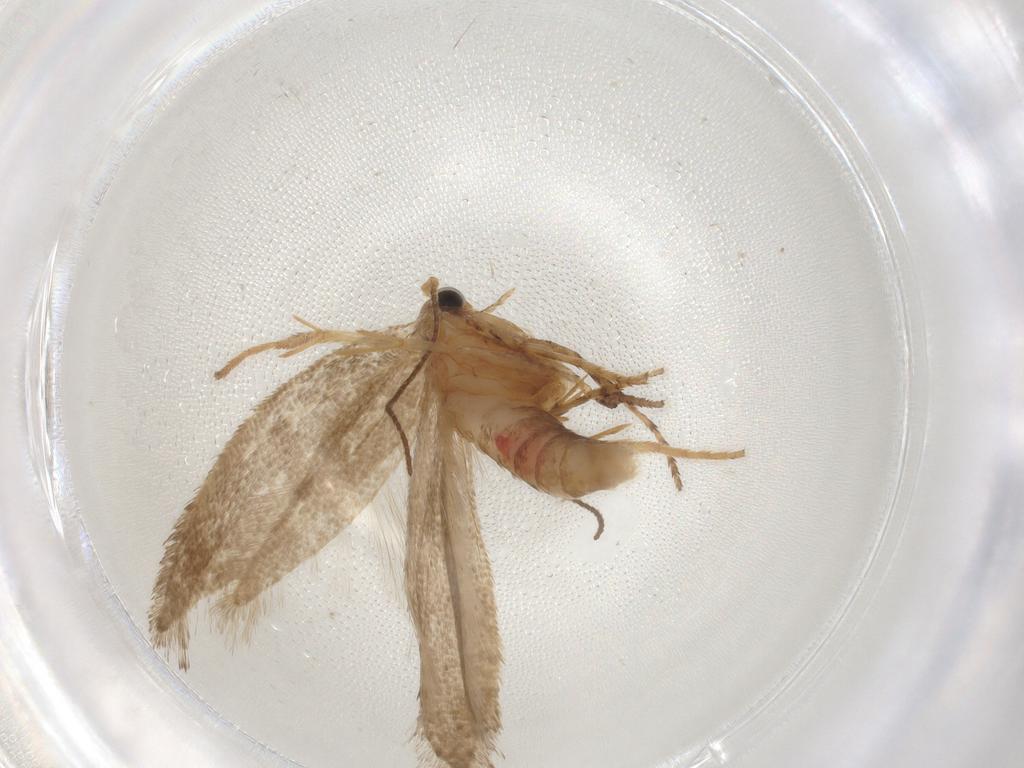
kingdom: Animalia
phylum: Arthropoda
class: Insecta
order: Lepidoptera
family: Argyresthiidae
